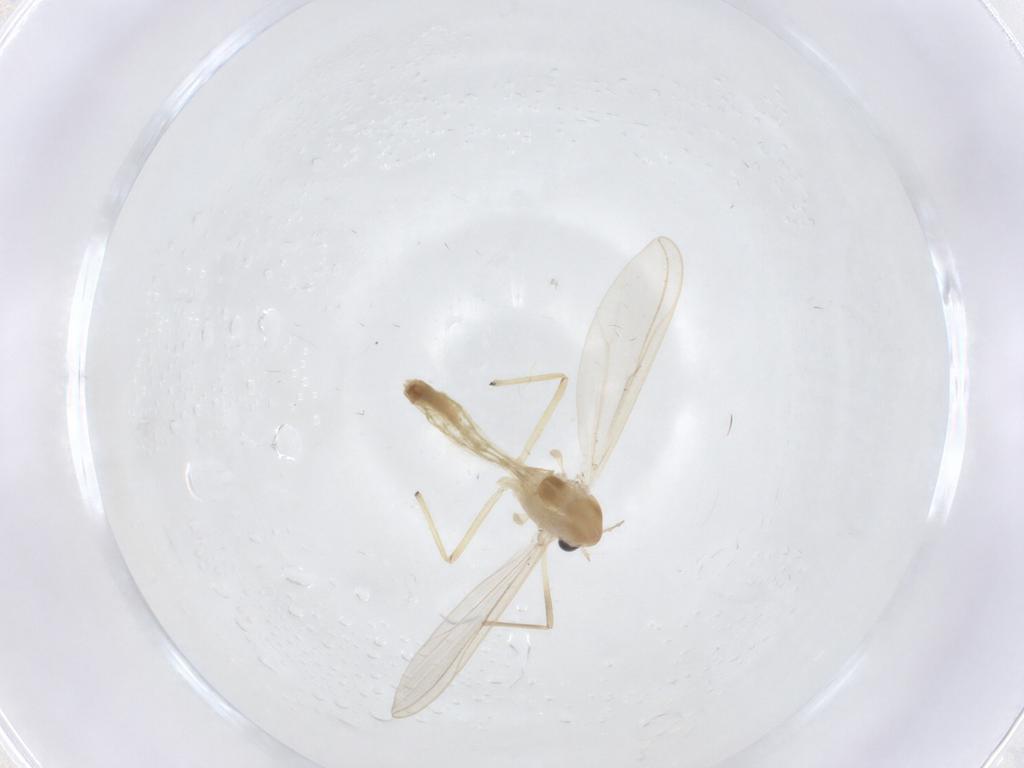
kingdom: Animalia
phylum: Arthropoda
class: Insecta
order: Diptera
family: Chironomidae
